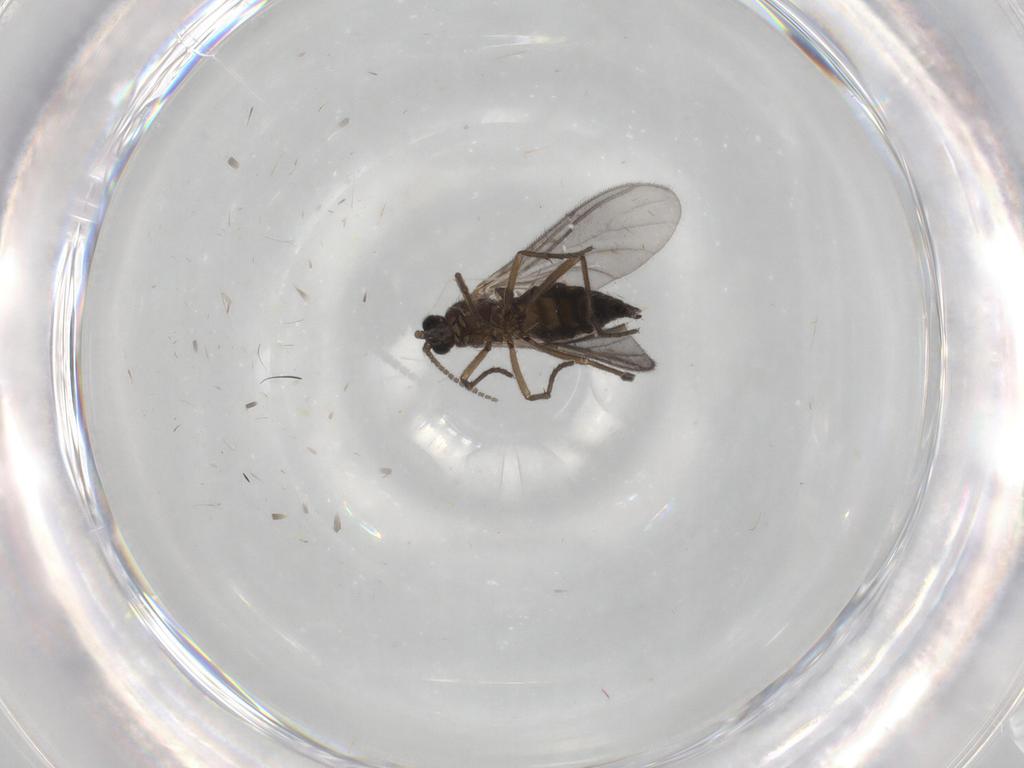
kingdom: Animalia
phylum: Arthropoda
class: Insecta
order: Diptera
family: Sciaridae
